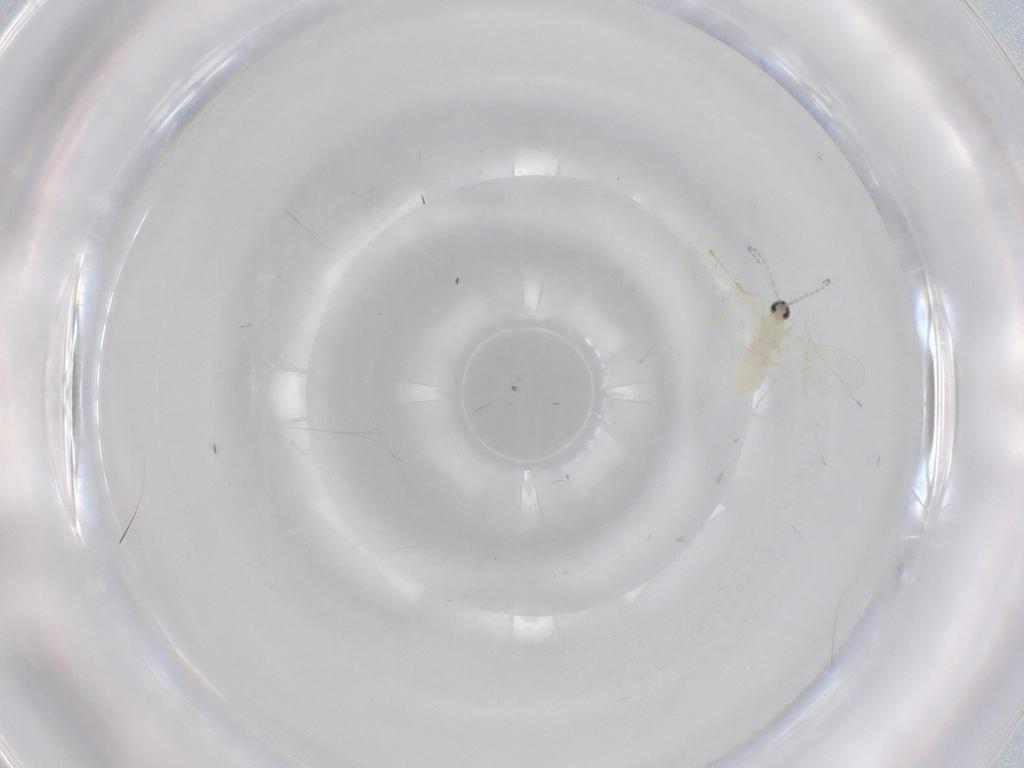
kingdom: Animalia
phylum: Arthropoda
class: Insecta
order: Diptera
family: Cecidomyiidae
